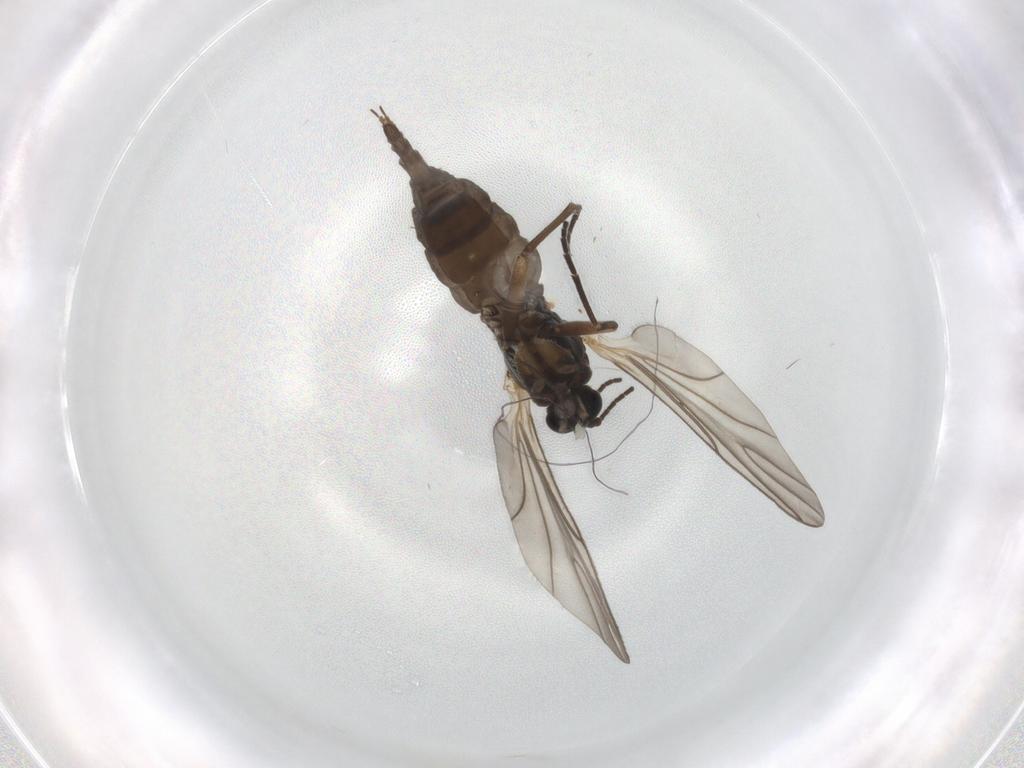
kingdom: Animalia
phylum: Arthropoda
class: Insecta
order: Diptera
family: Sciaridae
